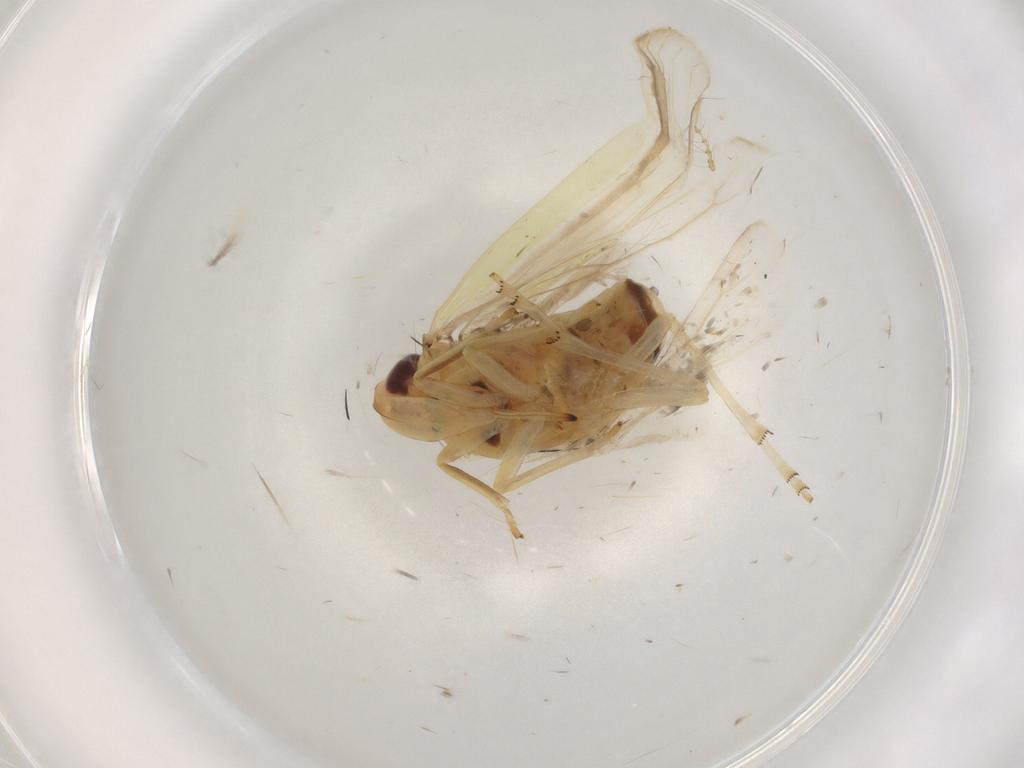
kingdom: Animalia
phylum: Arthropoda
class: Insecta
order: Hemiptera
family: Achilidae
